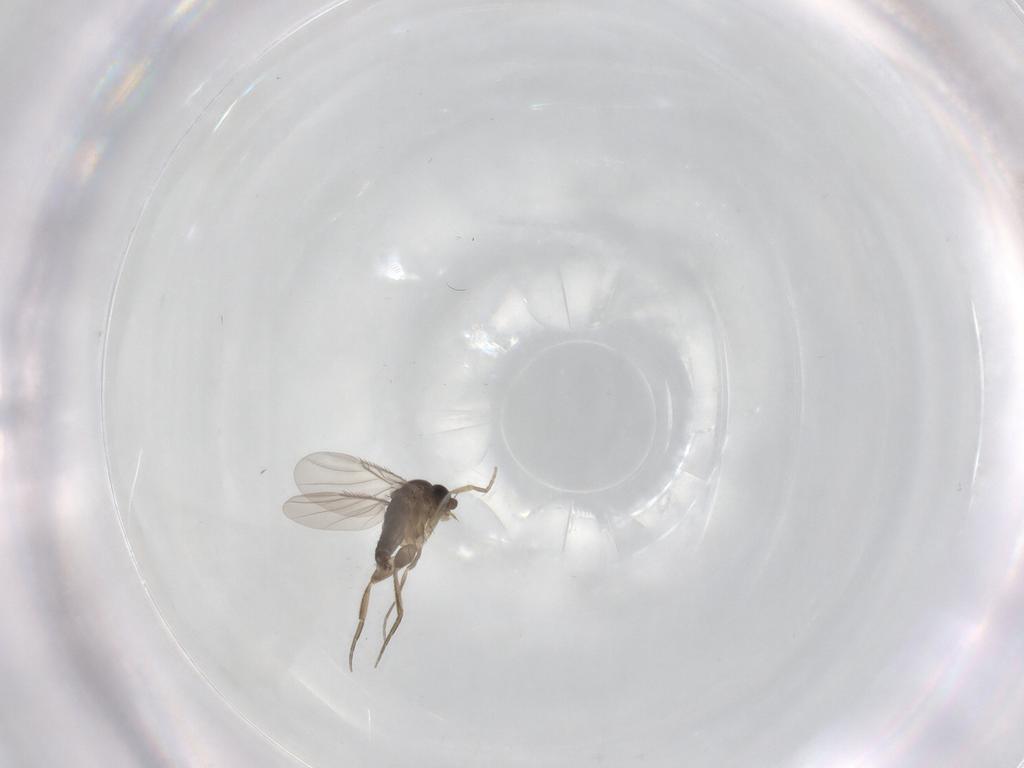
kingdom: Animalia
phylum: Arthropoda
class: Insecta
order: Diptera
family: Phoridae
